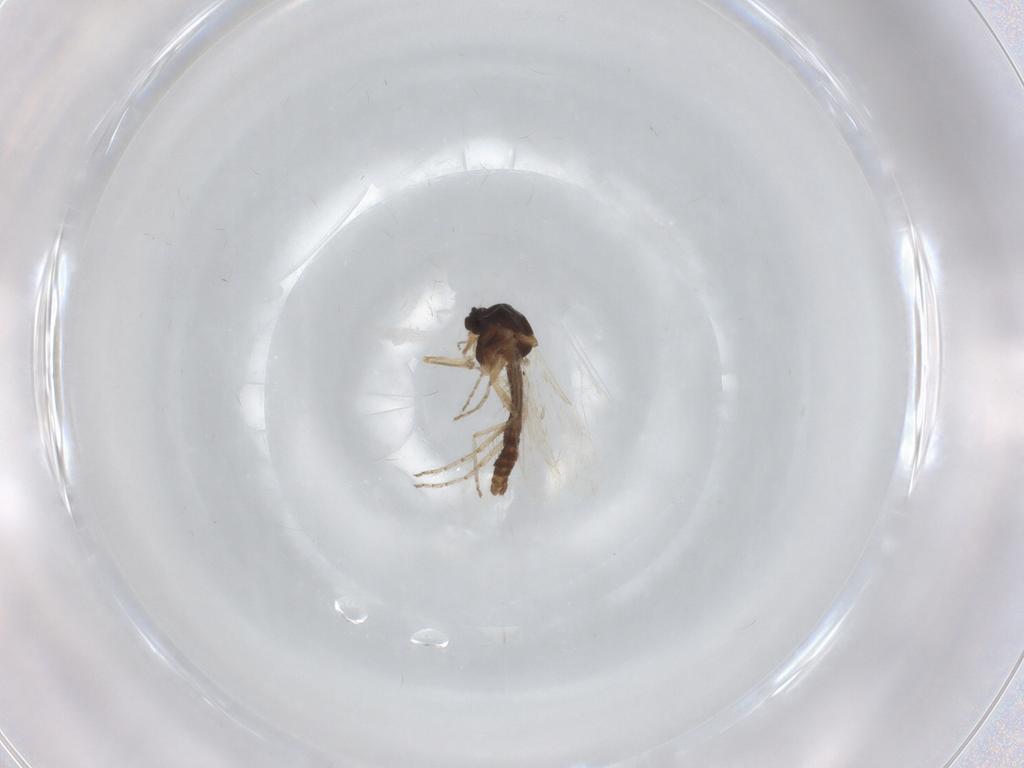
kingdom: Animalia
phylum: Arthropoda
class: Insecta
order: Diptera
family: Ceratopogonidae
